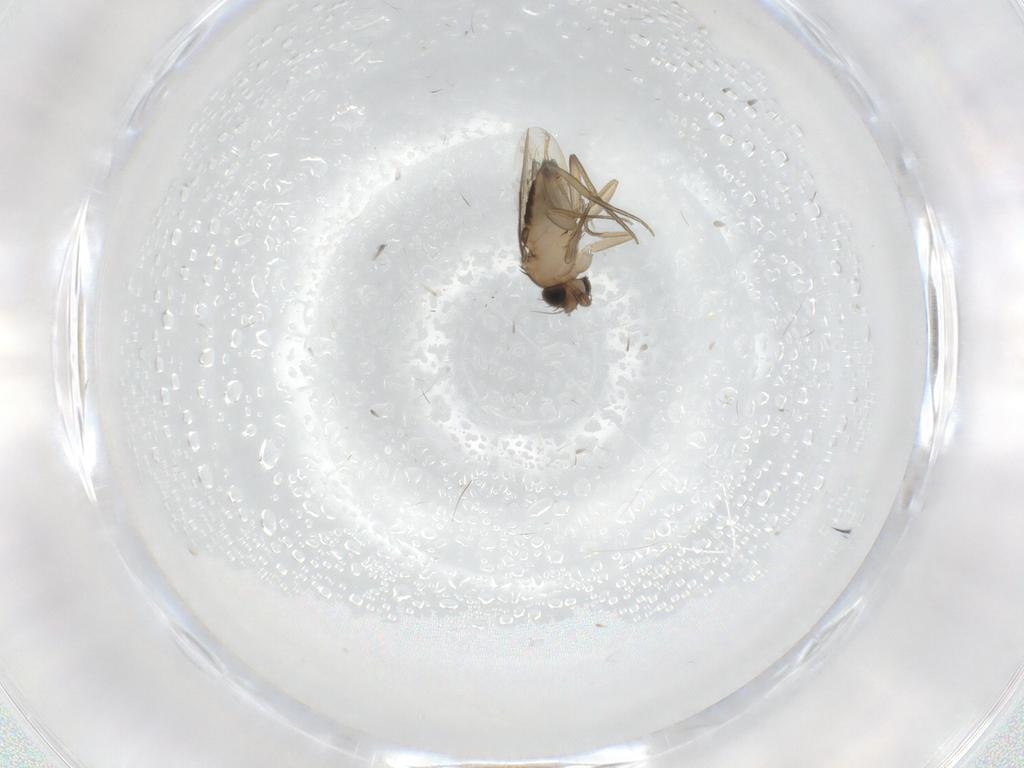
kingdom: Animalia
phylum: Arthropoda
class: Insecta
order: Diptera
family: Phoridae
